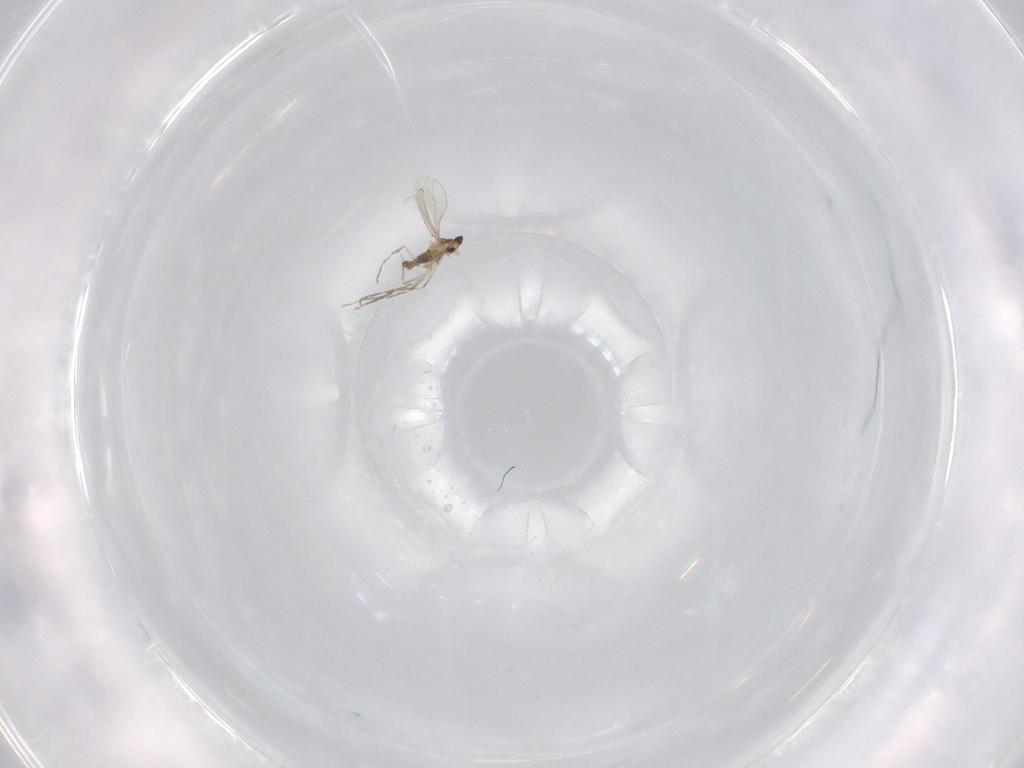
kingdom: Animalia
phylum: Arthropoda
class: Insecta
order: Diptera
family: Cecidomyiidae
